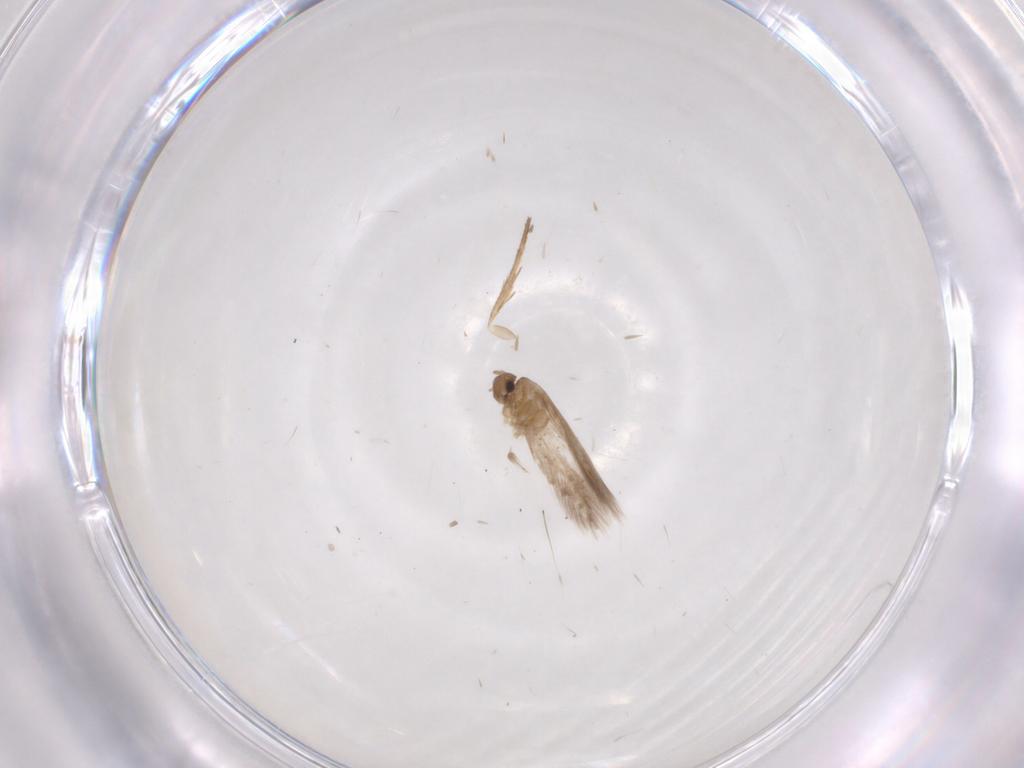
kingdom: Animalia
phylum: Arthropoda
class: Insecta
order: Lepidoptera
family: Heliozelidae
